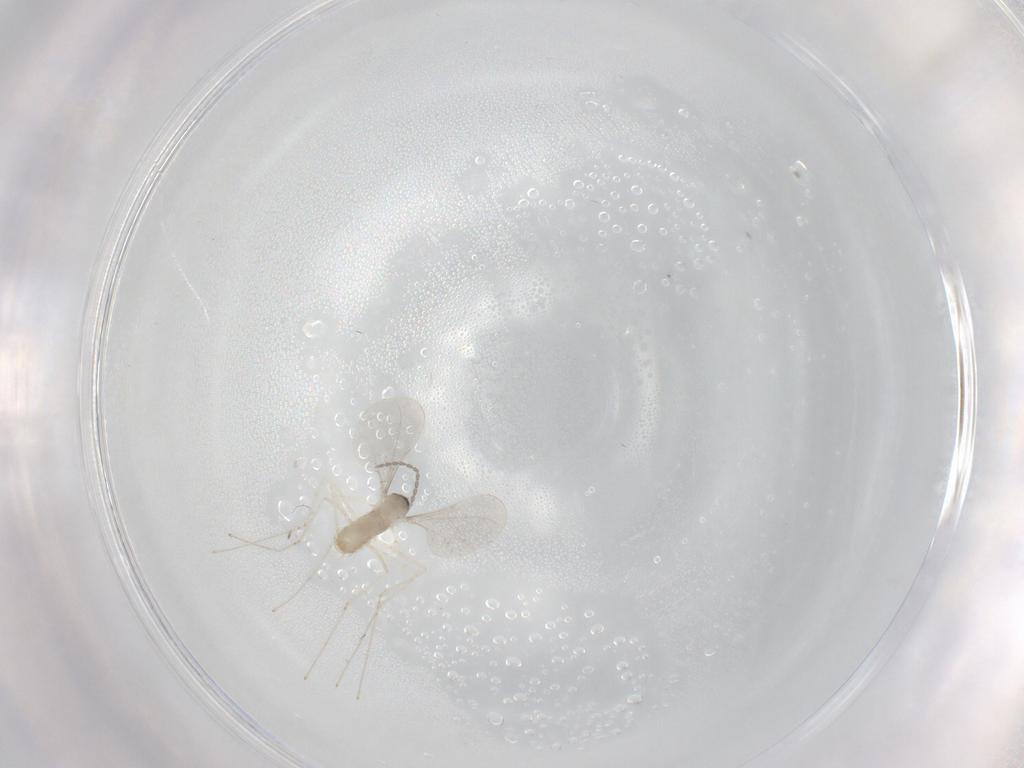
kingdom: Animalia
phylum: Arthropoda
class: Insecta
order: Diptera
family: Cecidomyiidae
